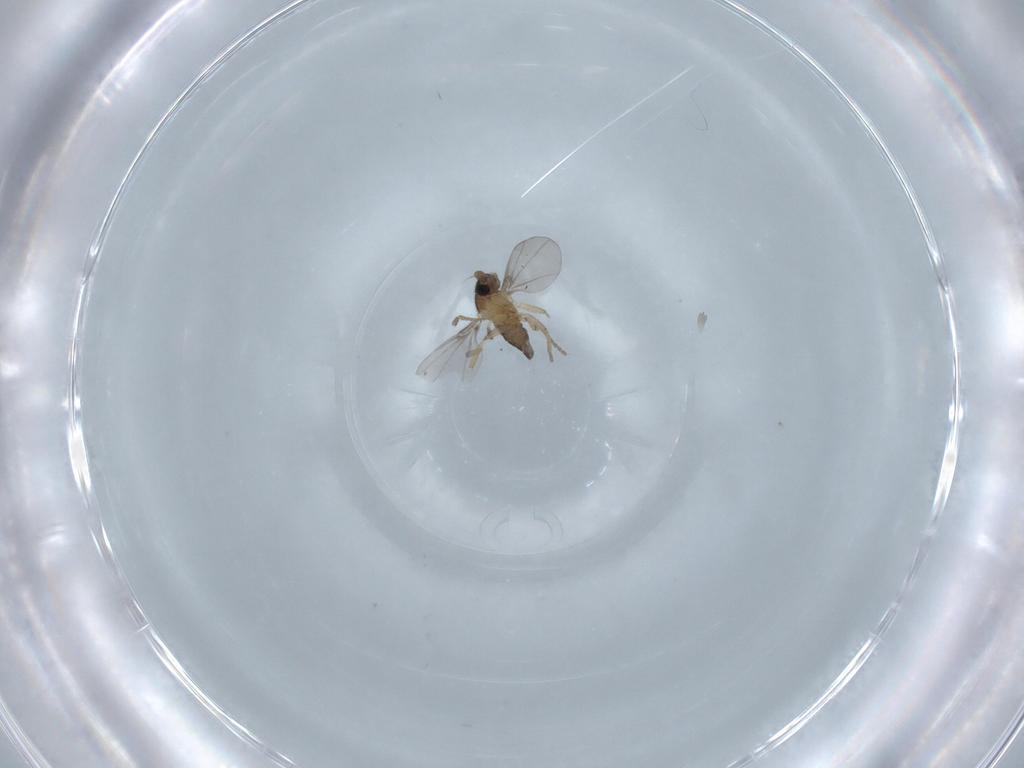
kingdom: Animalia
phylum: Arthropoda
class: Insecta
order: Diptera
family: Phoridae
